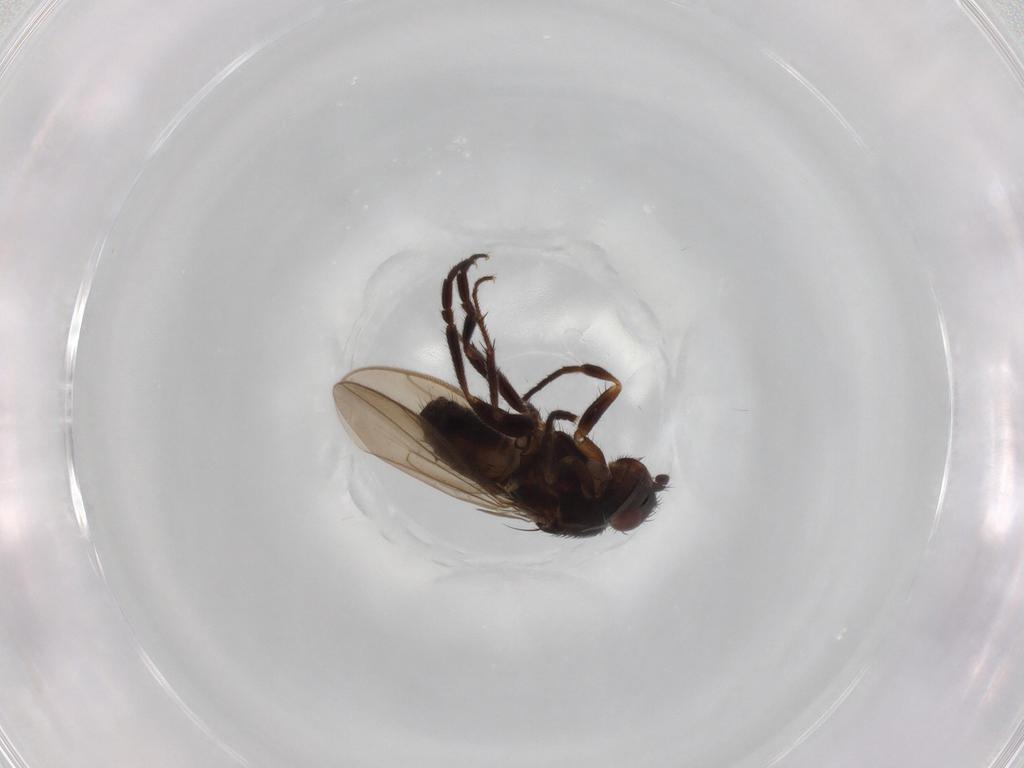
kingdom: Animalia
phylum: Arthropoda
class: Insecta
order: Diptera
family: Sphaeroceridae
